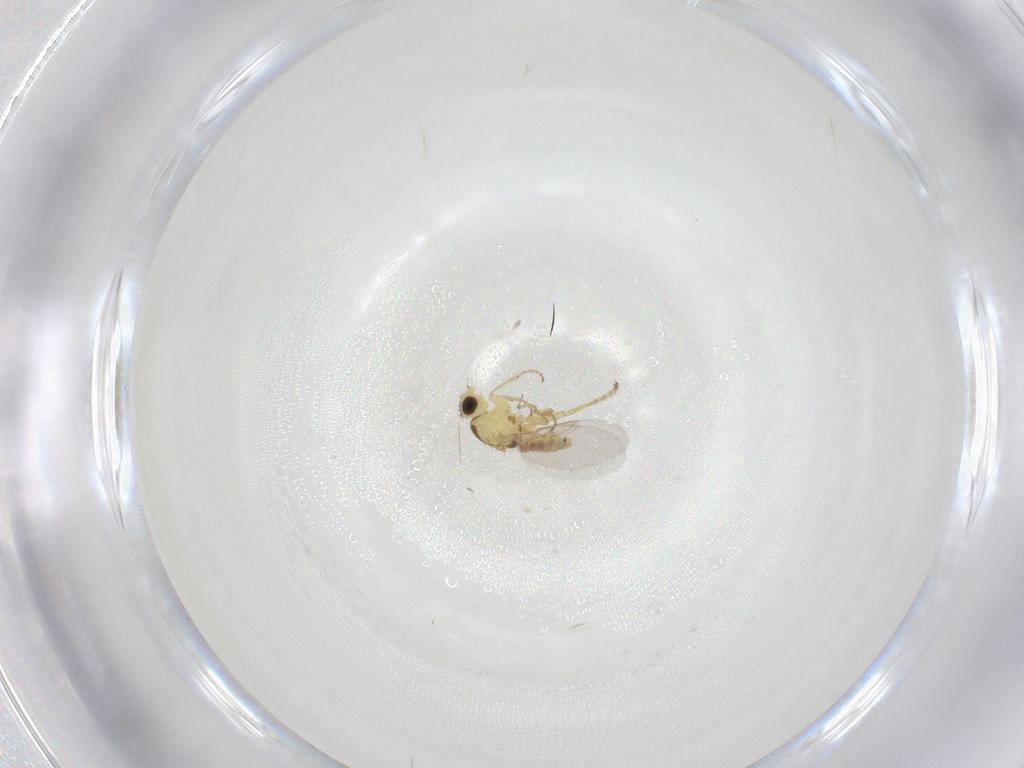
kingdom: Animalia
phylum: Arthropoda
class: Insecta
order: Diptera
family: Agromyzidae
